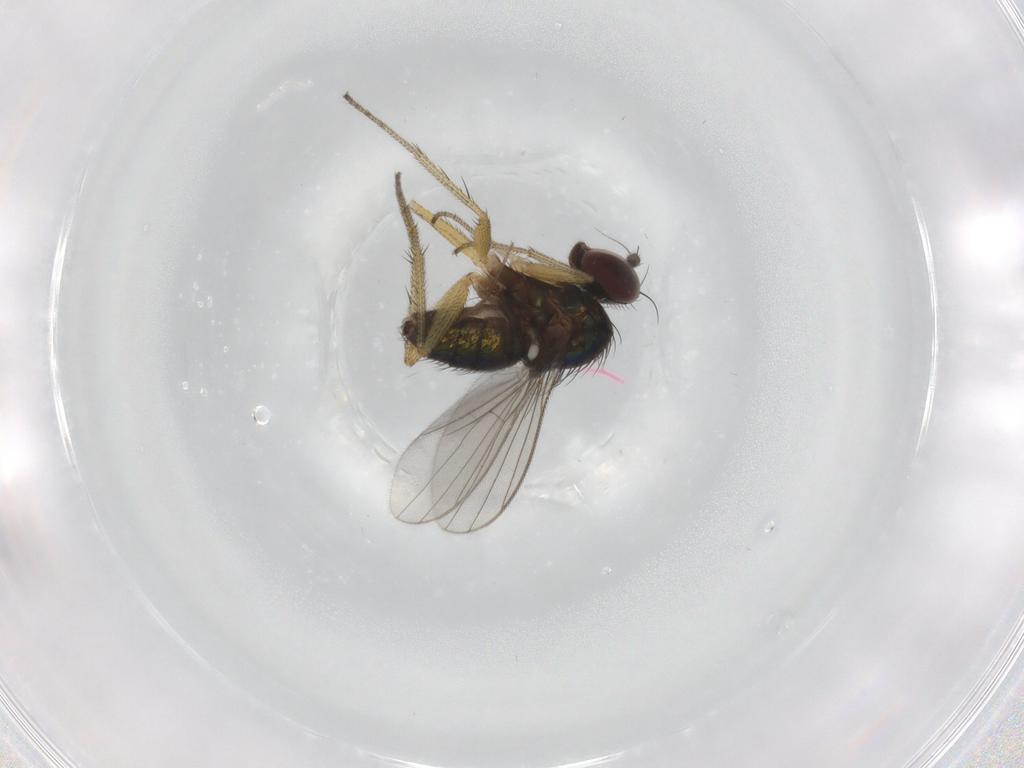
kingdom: Animalia
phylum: Arthropoda
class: Insecta
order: Diptera
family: Dolichopodidae
